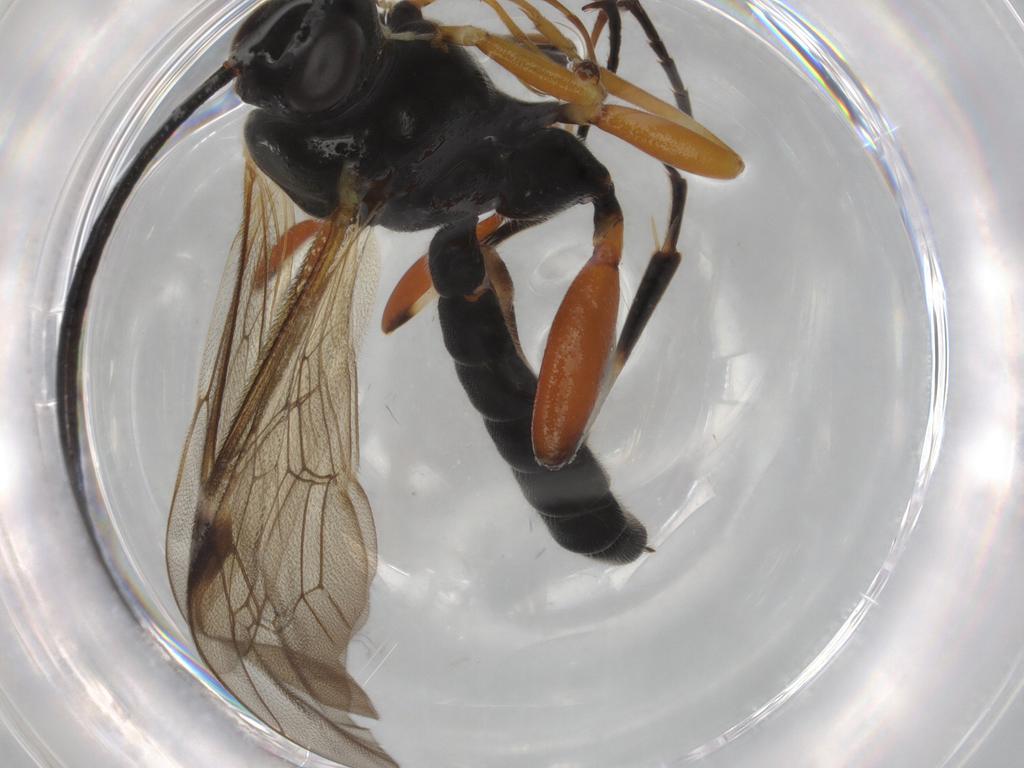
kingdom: Animalia
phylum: Arthropoda
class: Insecta
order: Hymenoptera
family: Ichneumonidae
